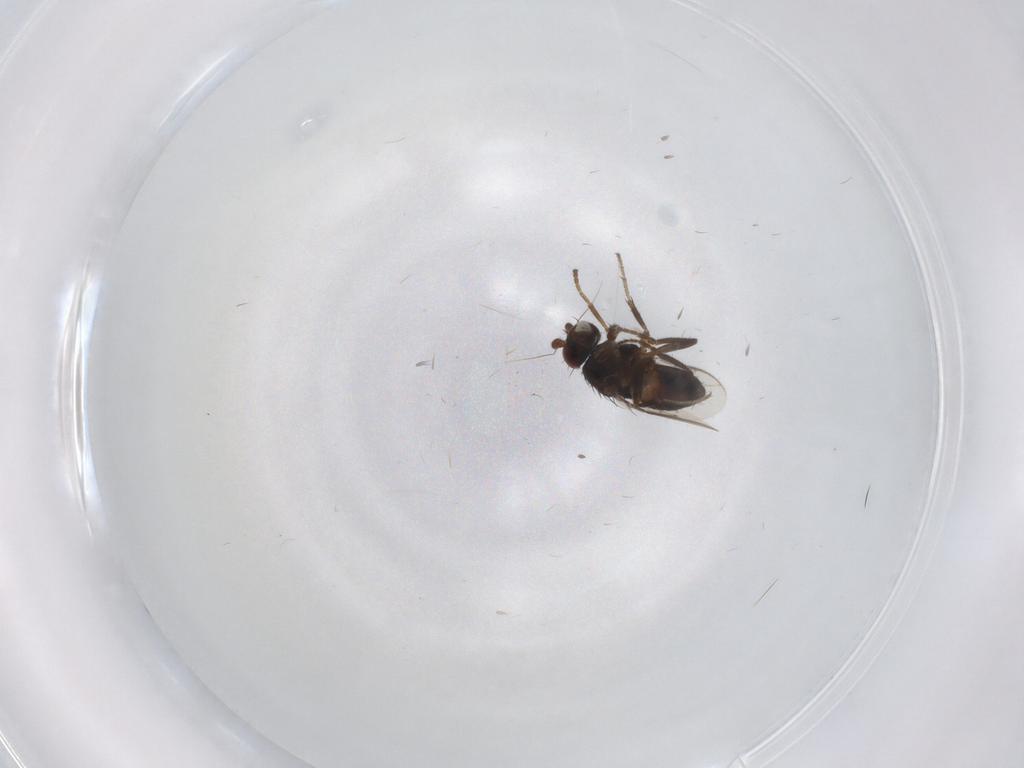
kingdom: Animalia
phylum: Arthropoda
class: Insecta
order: Diptera
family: Sphaeroceridae
